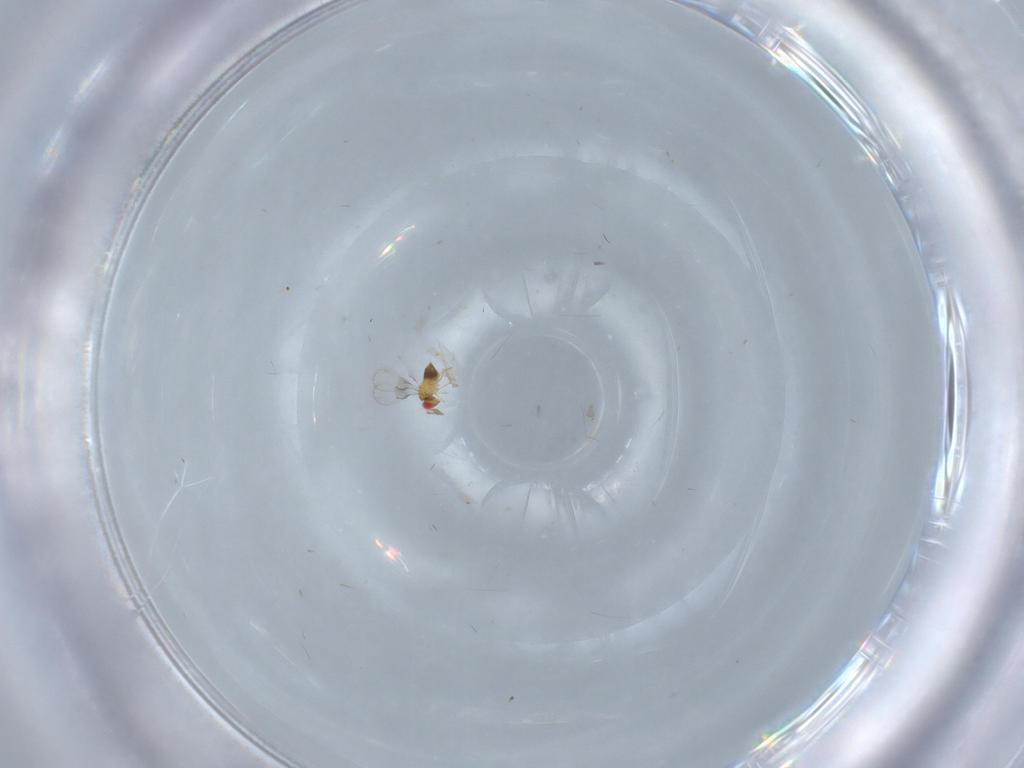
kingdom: Animalia
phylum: Arthropoda
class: Insecta
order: Hymenoptera
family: Trichogrammatidae
